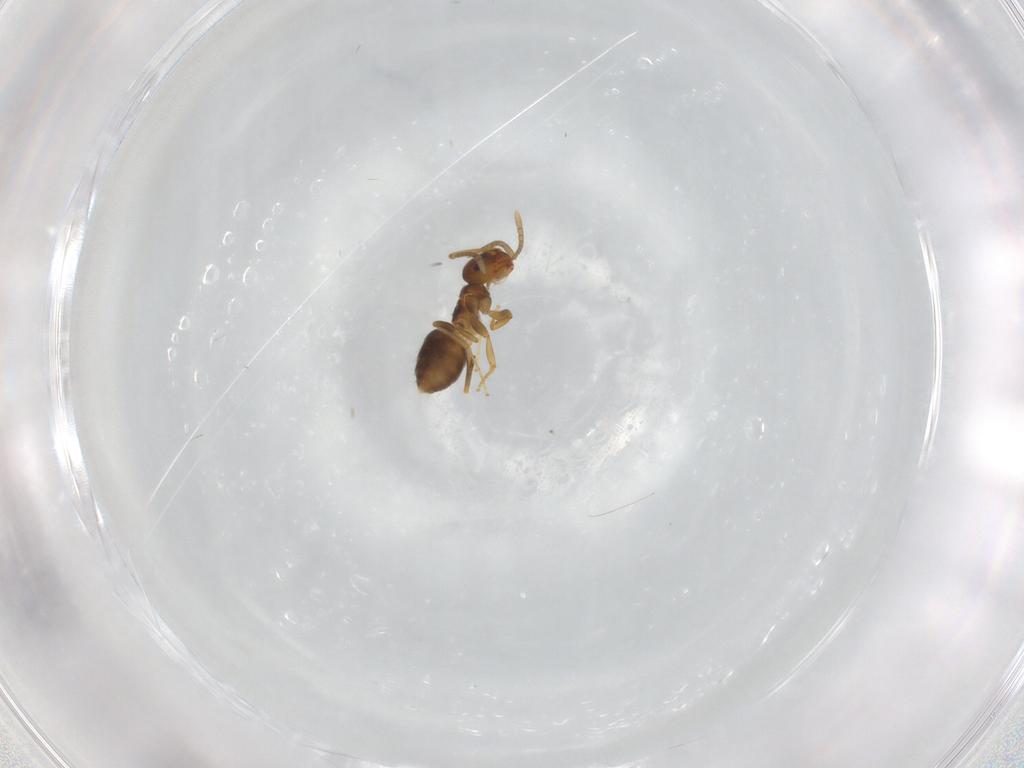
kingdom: Animalia
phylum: Arthropoda
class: Insecta
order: Hymenoptera
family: Formicidae
